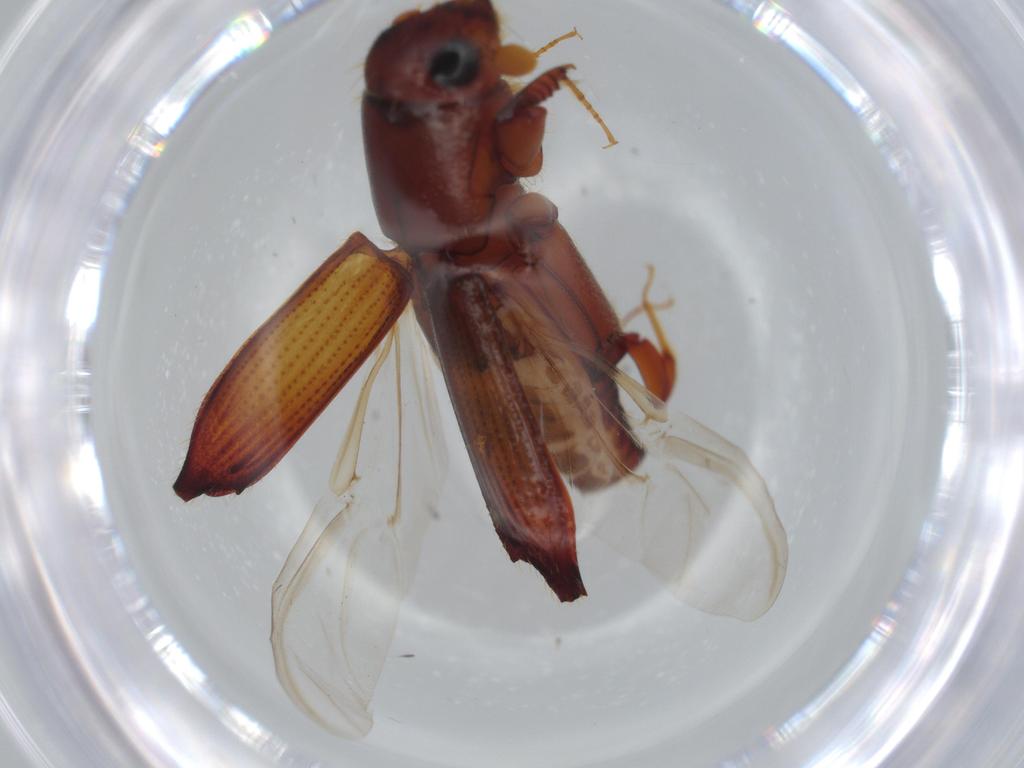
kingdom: Animalia
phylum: Arthropoda
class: Insecta
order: Coleoptera
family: Curculionidae
